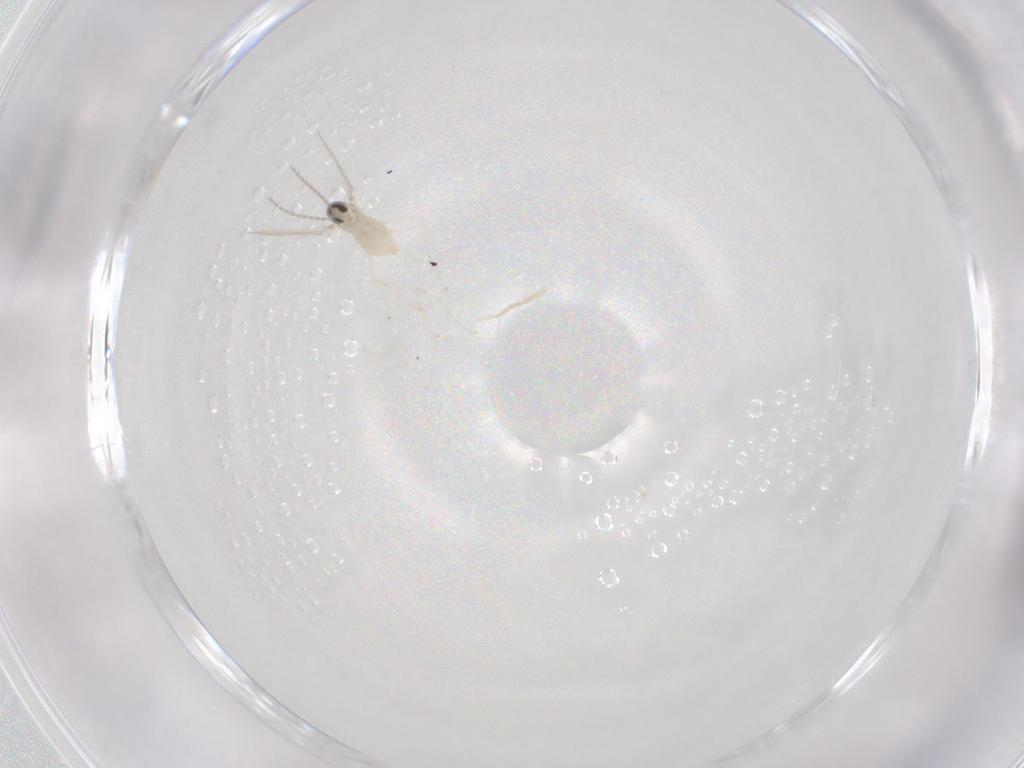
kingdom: Animalia
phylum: Arthropoda
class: Insecta
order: Diptera
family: Cecidomyiidae
